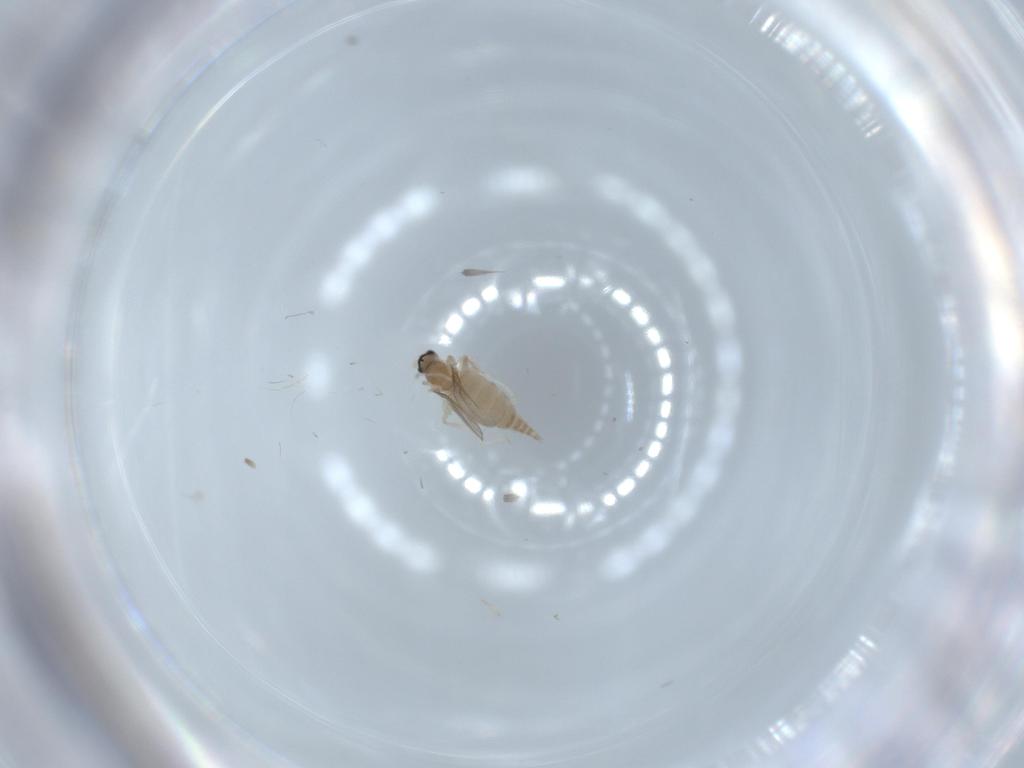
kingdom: Animalia
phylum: Arthropoda
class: Insecta
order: Diptera
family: Cecidomyiidae
